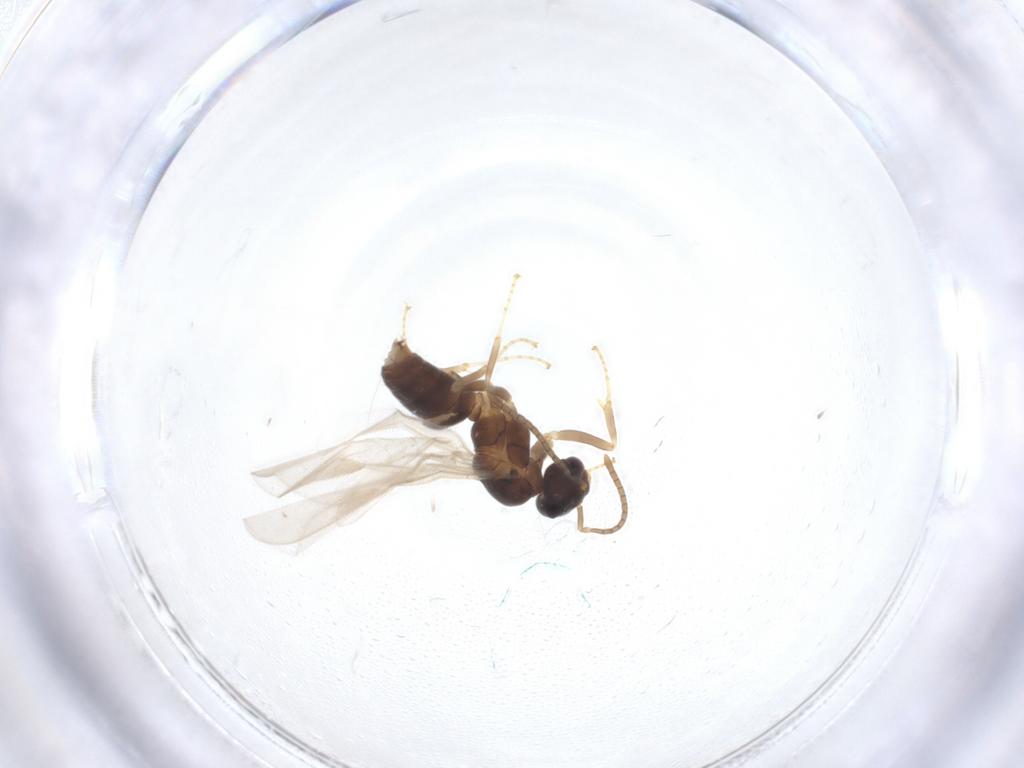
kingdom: Animalia
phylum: Arthropoda
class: Insecta
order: Hymenoptera
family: Formicidae
